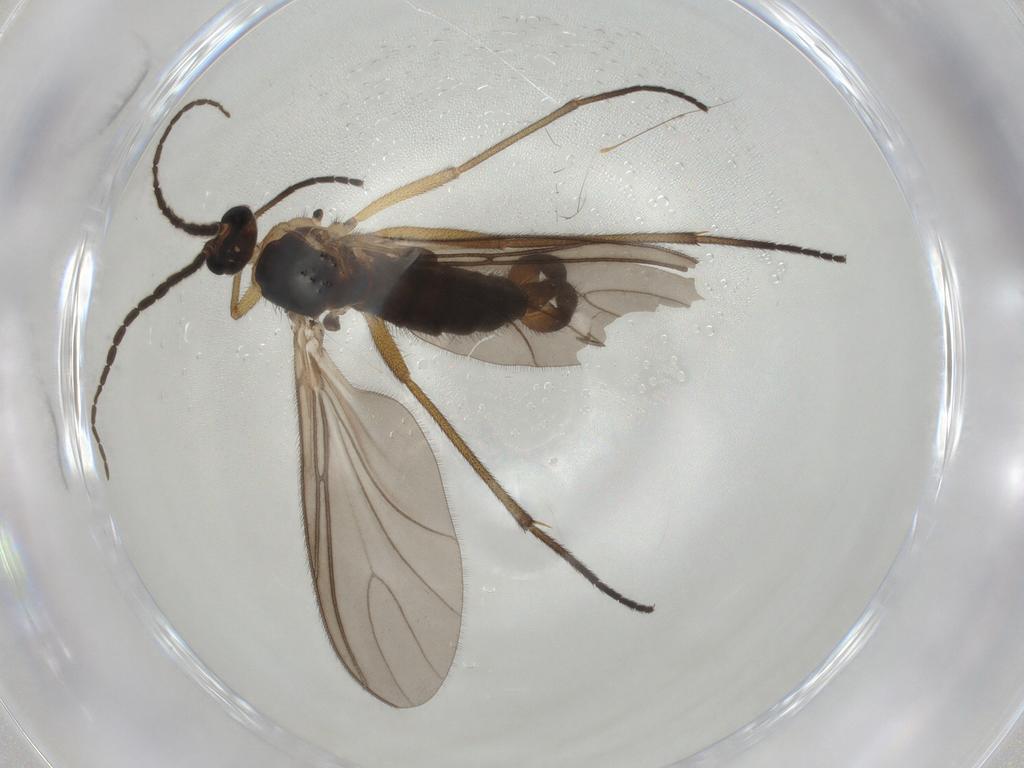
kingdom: Animalia
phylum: Arthropoda
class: Insecta
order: Diptera
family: Sciaridae
